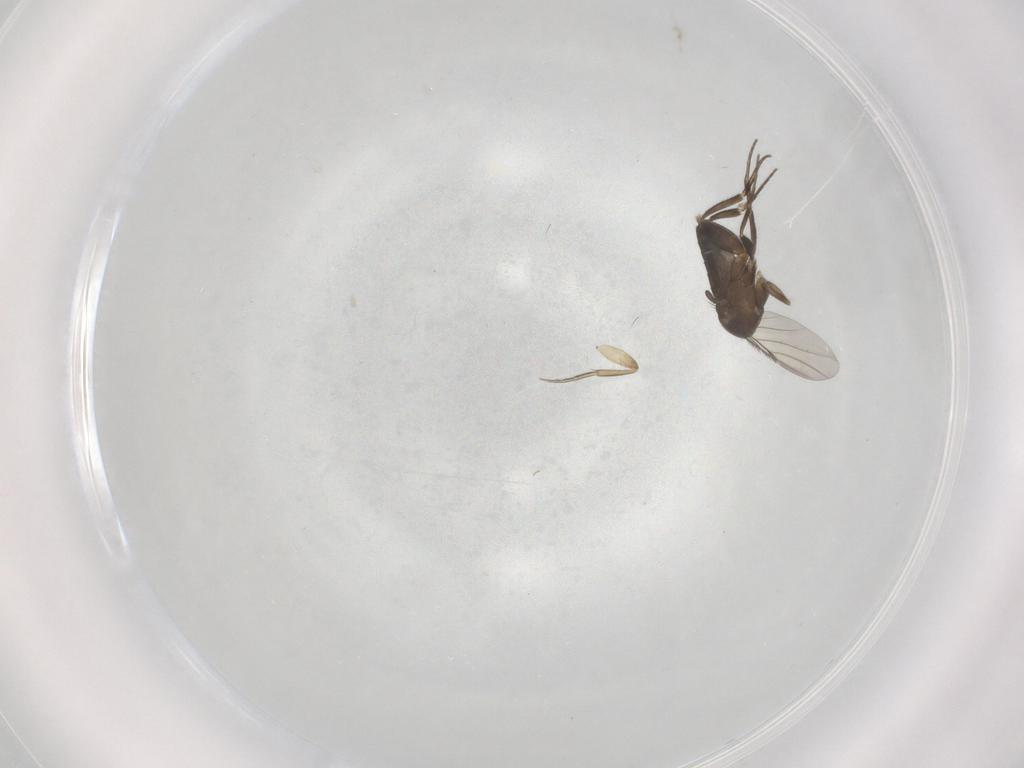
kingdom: Animalia
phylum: Arthropoda
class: Insecta
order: Diptera
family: Phoridae
